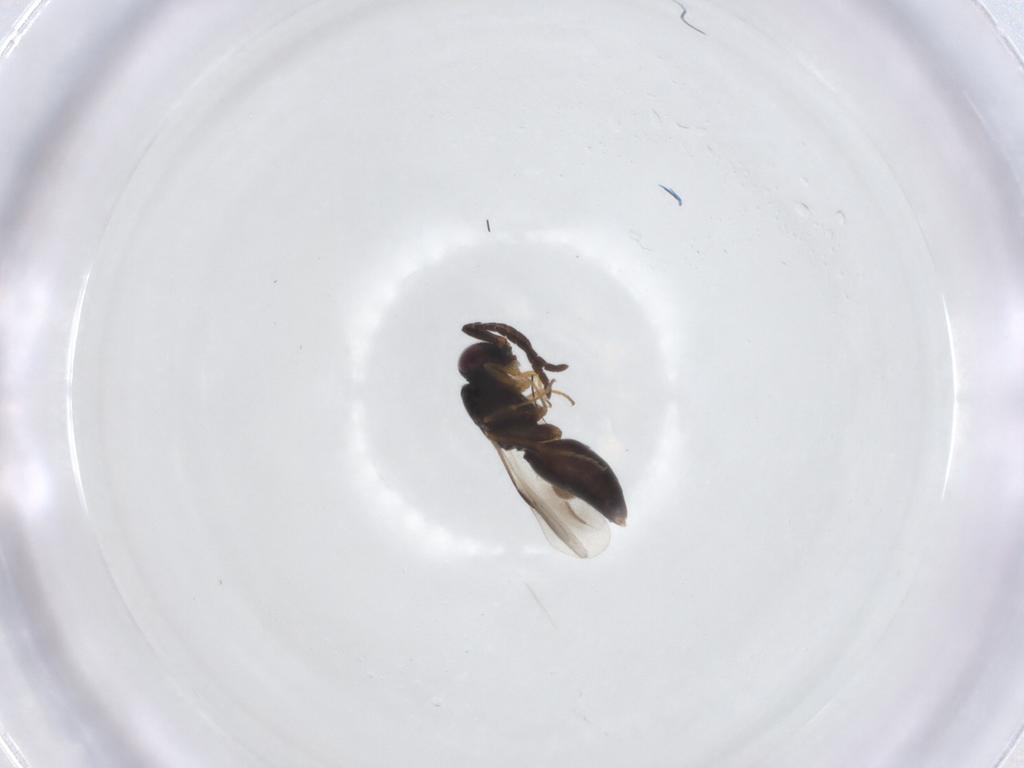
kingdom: Animalia
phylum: Arthropoda
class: Insecta
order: Hymenoptera
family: Megaspilidae
